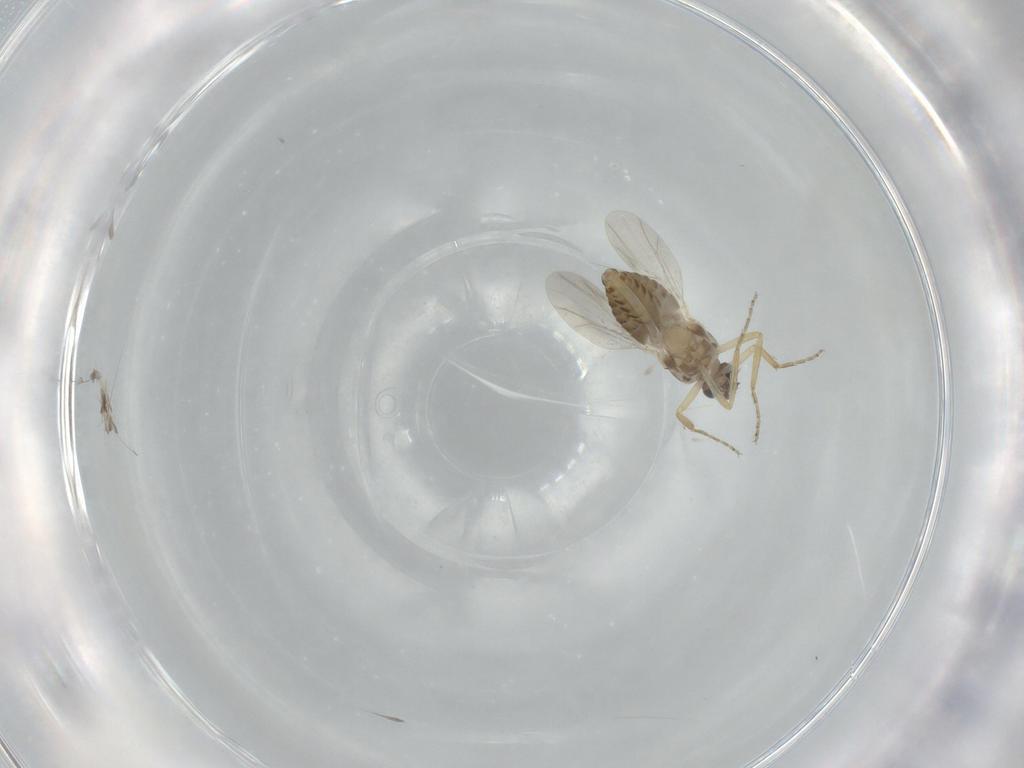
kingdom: Animalia
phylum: Arthropoda
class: Insecta
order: Diptera
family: Ceratopogonidae
